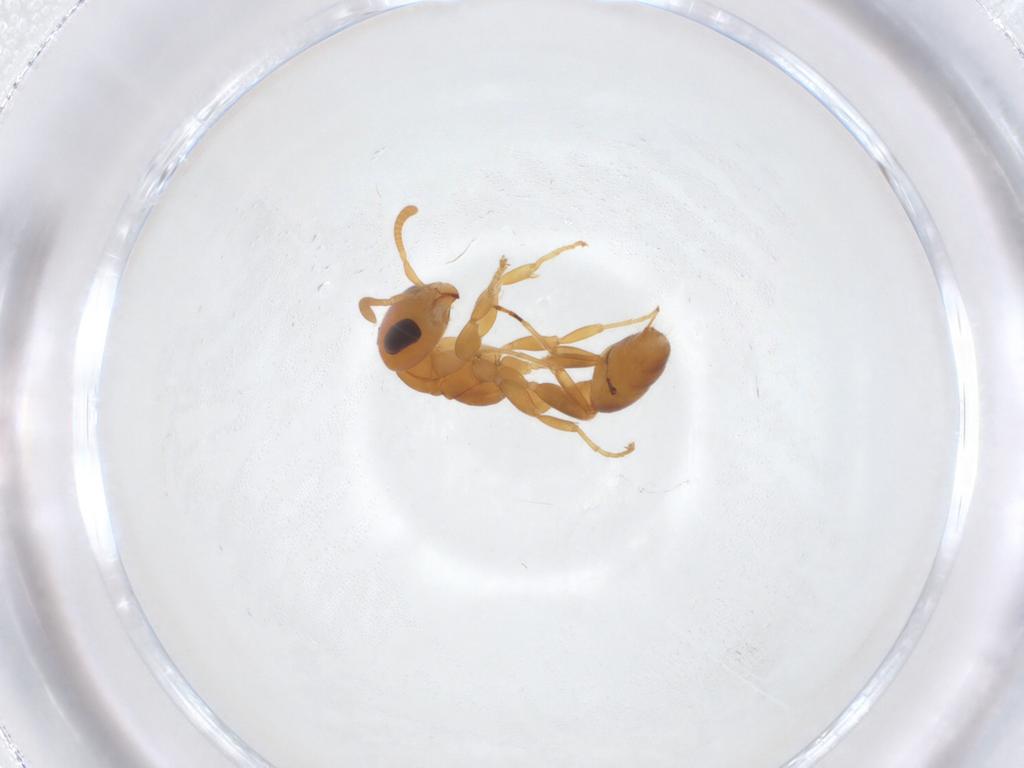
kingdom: Animalia
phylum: Arthropoda
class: Insecta
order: Hymenoptera
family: Formicidae
